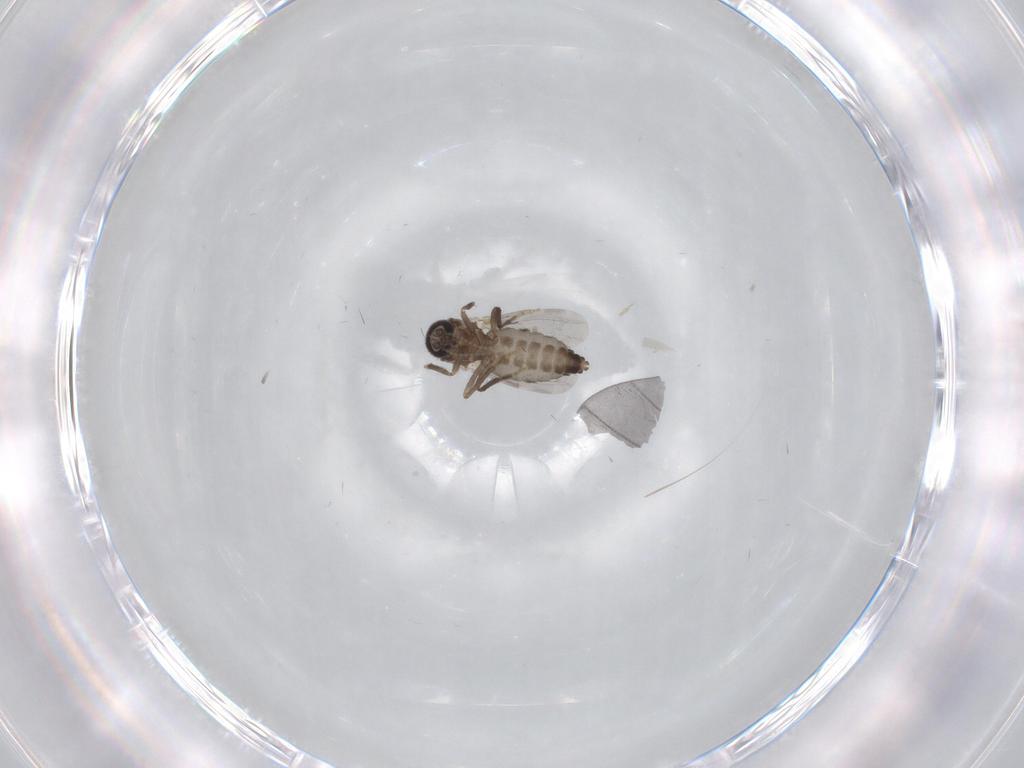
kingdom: Animalia
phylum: Arthropoda
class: Insecta
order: Diptera
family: Ceratopogonidae
